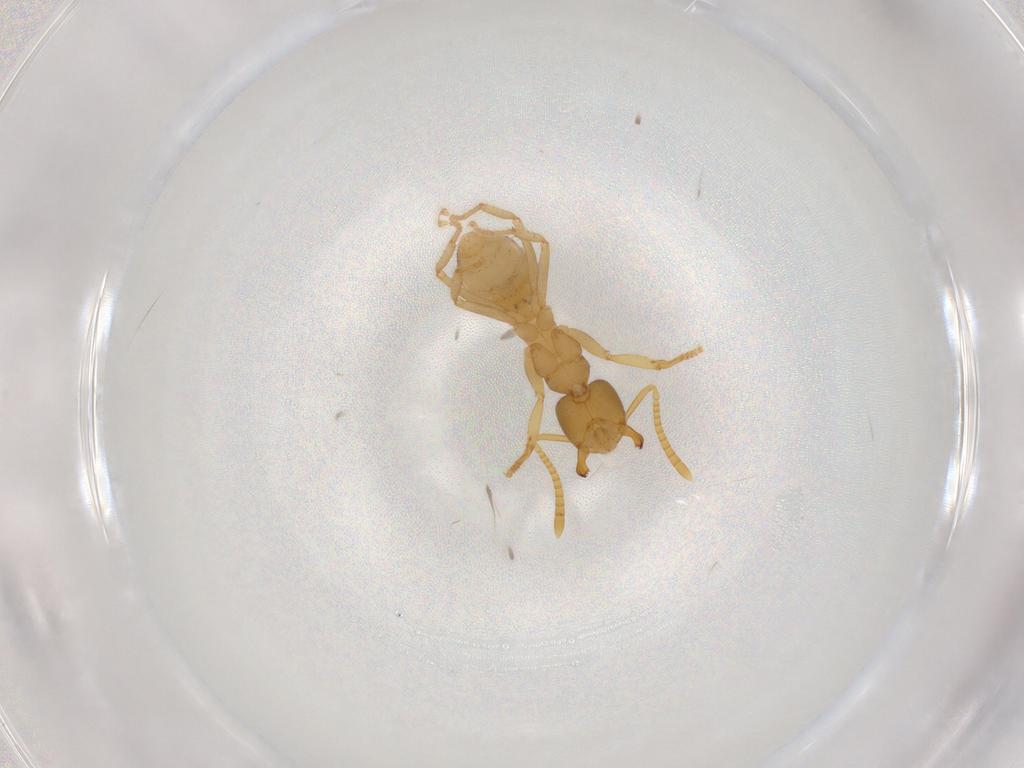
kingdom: Animalia
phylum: Arthropoda
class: Insecta
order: Hymenoptera
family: Formicidae
